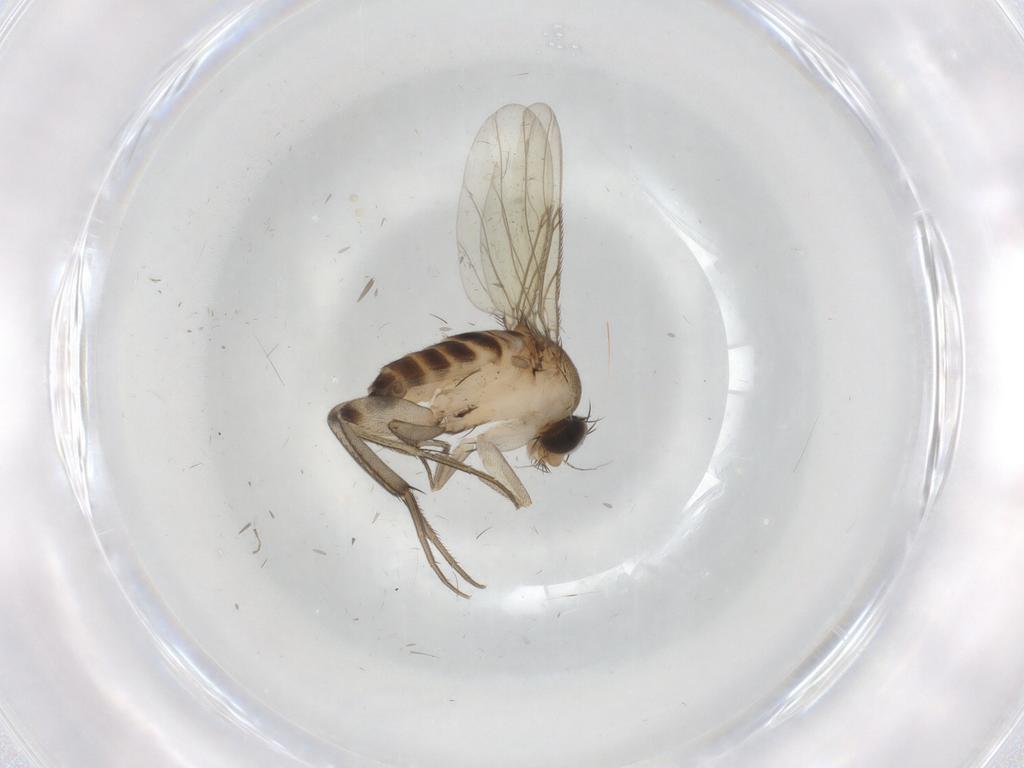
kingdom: Animalia
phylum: Arthropoda
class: Insecta
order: Diptera
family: Phoridae
